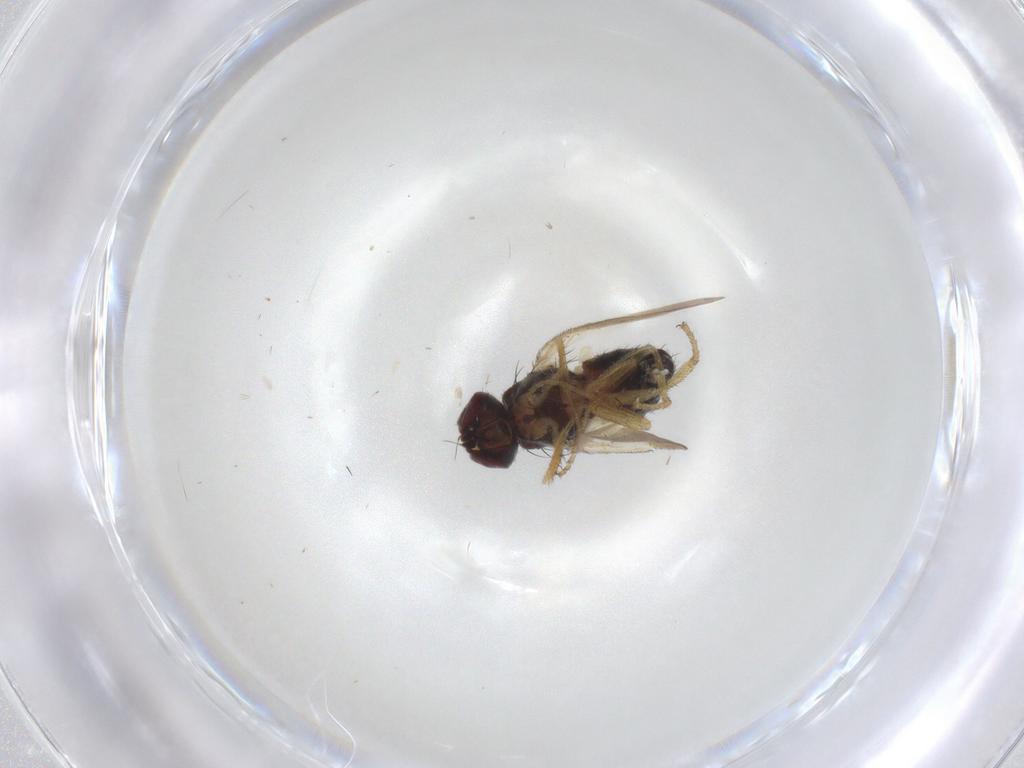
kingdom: Animalia
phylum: Arthropoda
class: Insecta
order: Diptera
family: Heleomyzidae
